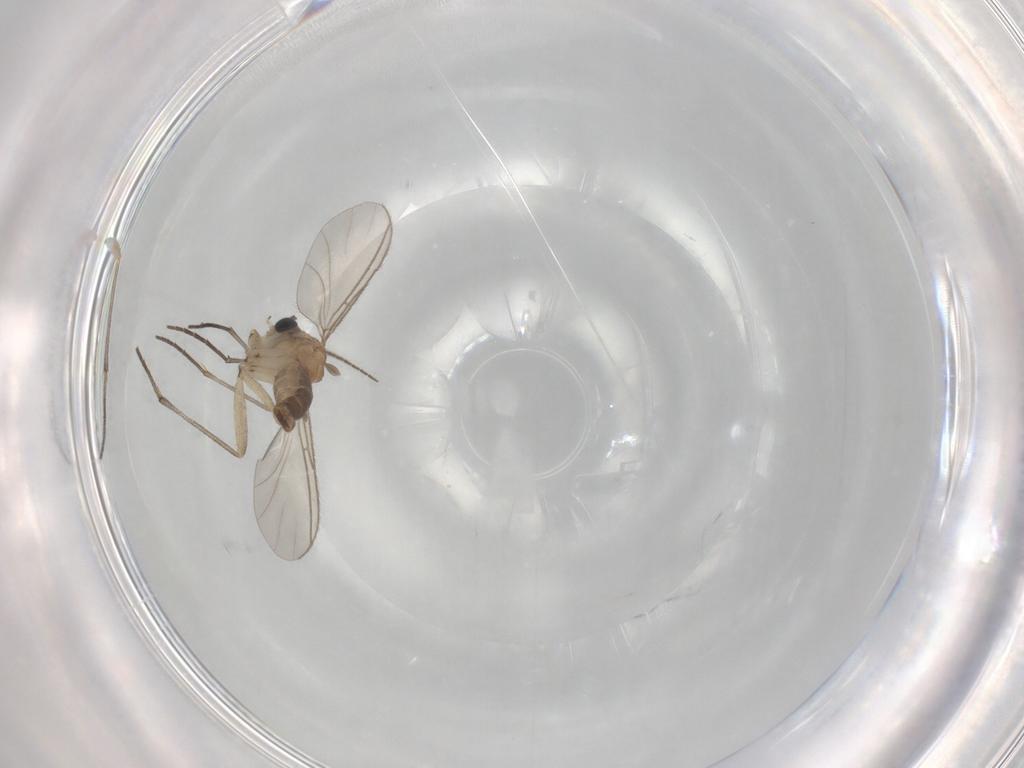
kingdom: Animalia
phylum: Arthropoda
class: Insecta
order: Diptera
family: Sciaridae
